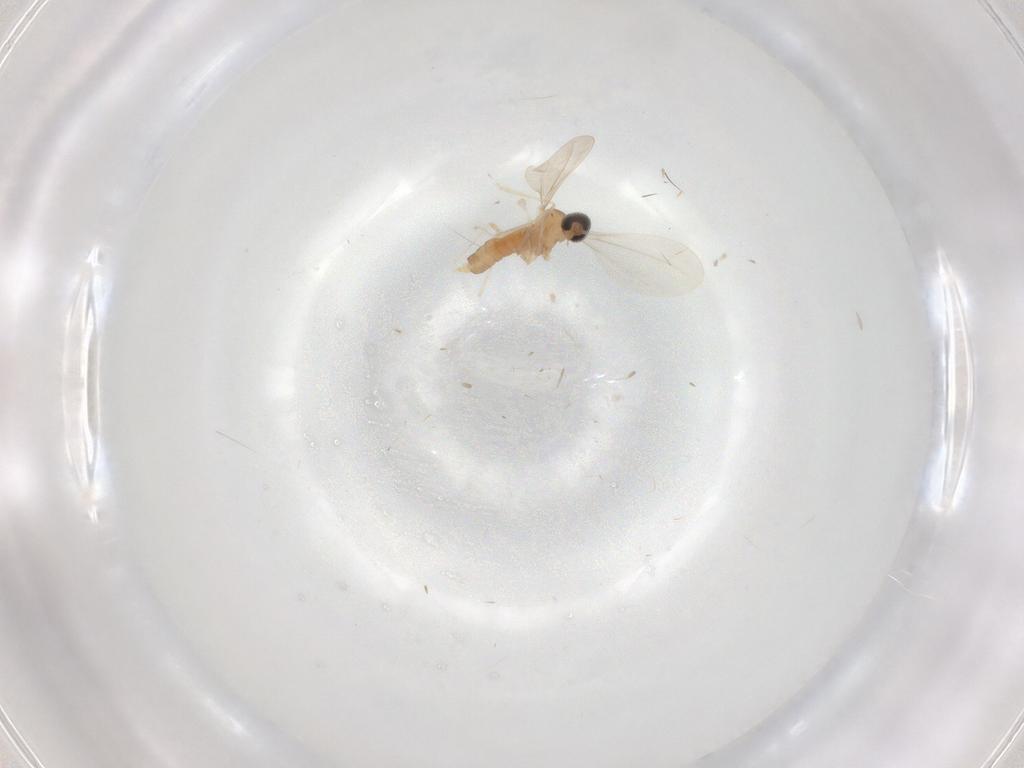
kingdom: Animalia
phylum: Arthropoda
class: Insecta
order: Diptera
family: Cecidomyiidae
